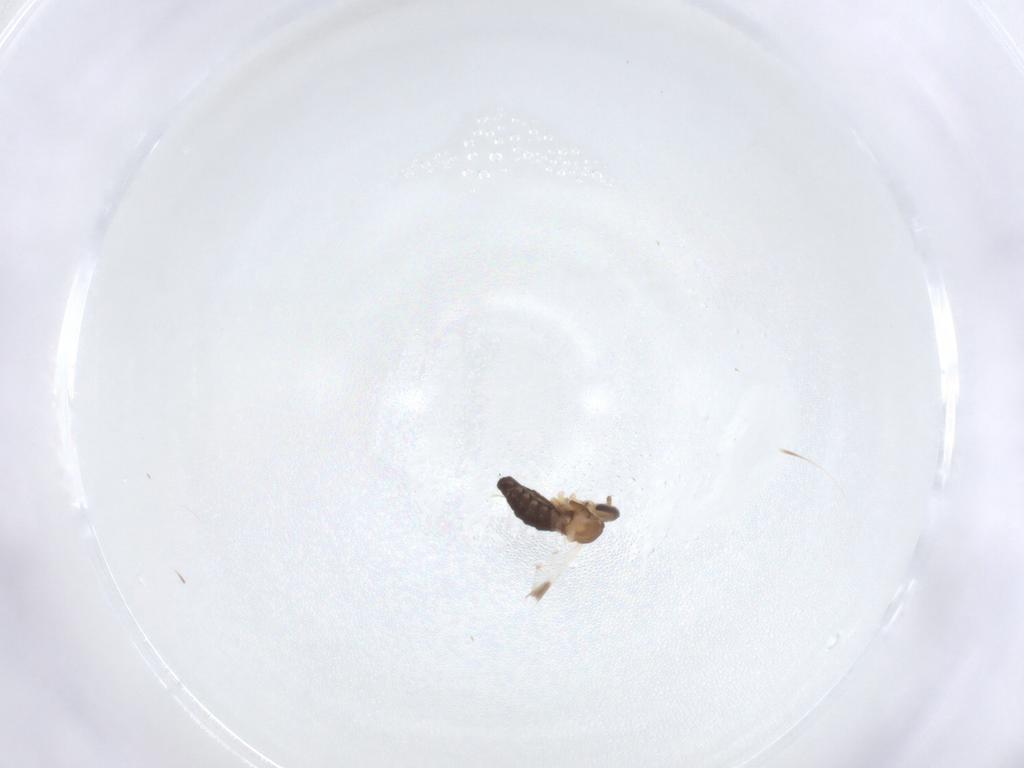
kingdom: Animalia
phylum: Arthropoda
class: Insecta
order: Diptera
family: Cecidomyiidae
